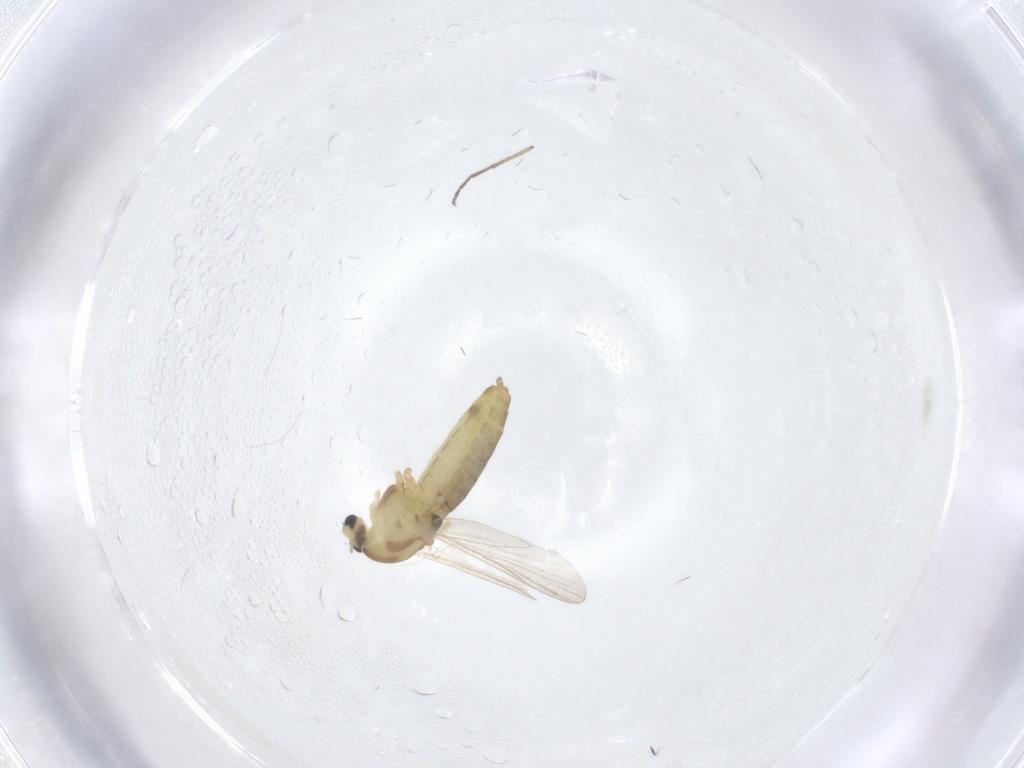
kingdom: Animalia
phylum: Arthropoda
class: Insecta
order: Diptera
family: Chironomidae
